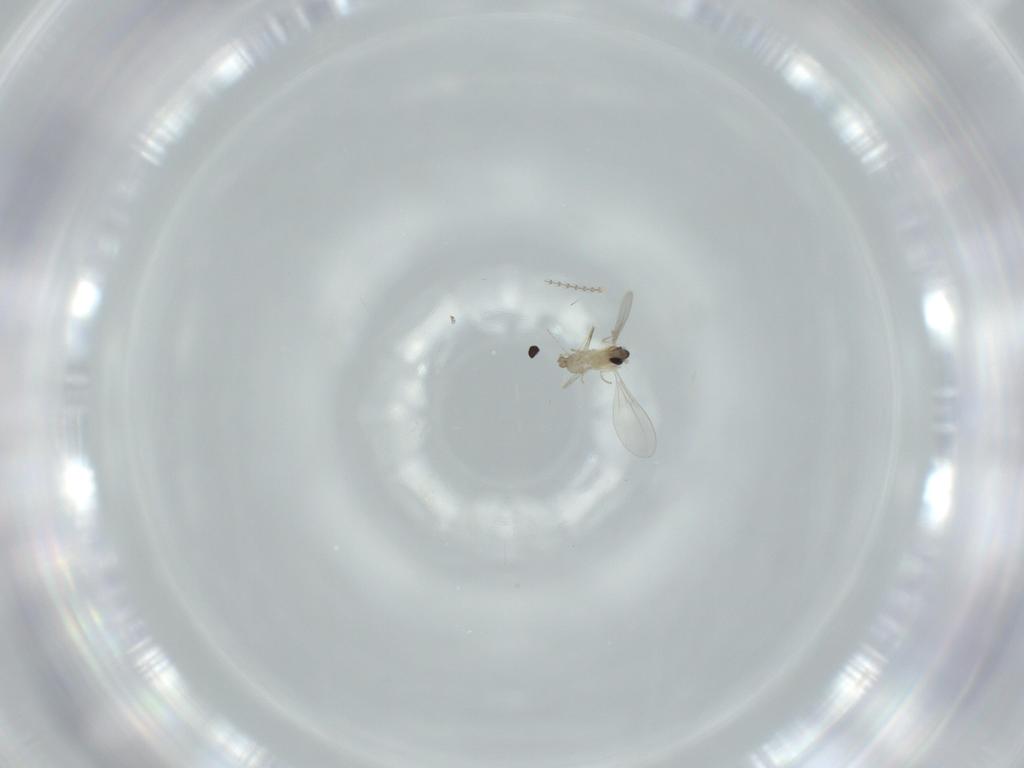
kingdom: Animalia
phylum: Arthropoda
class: Insecta
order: Diptera
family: Cecidomyiidae
